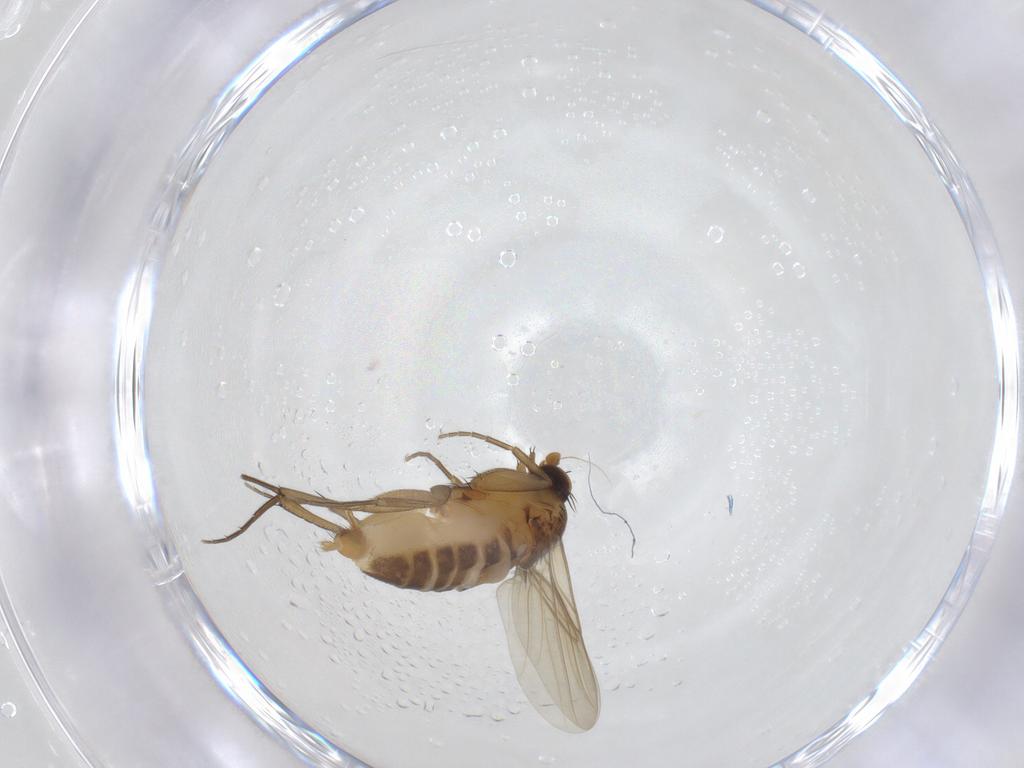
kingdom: Animalia
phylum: Arthropoda
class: Insecta
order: Diptera
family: Phoridae
